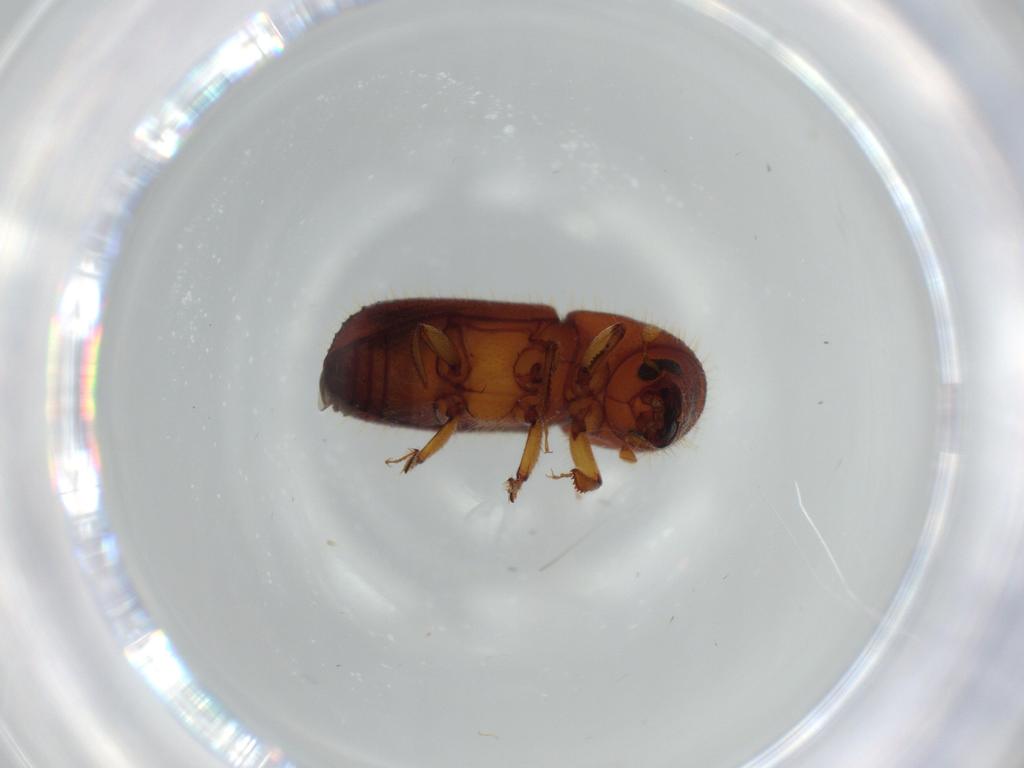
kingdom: Animalia
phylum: Arthropoda
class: Insecta
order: Coleoptera
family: Curculionidae
